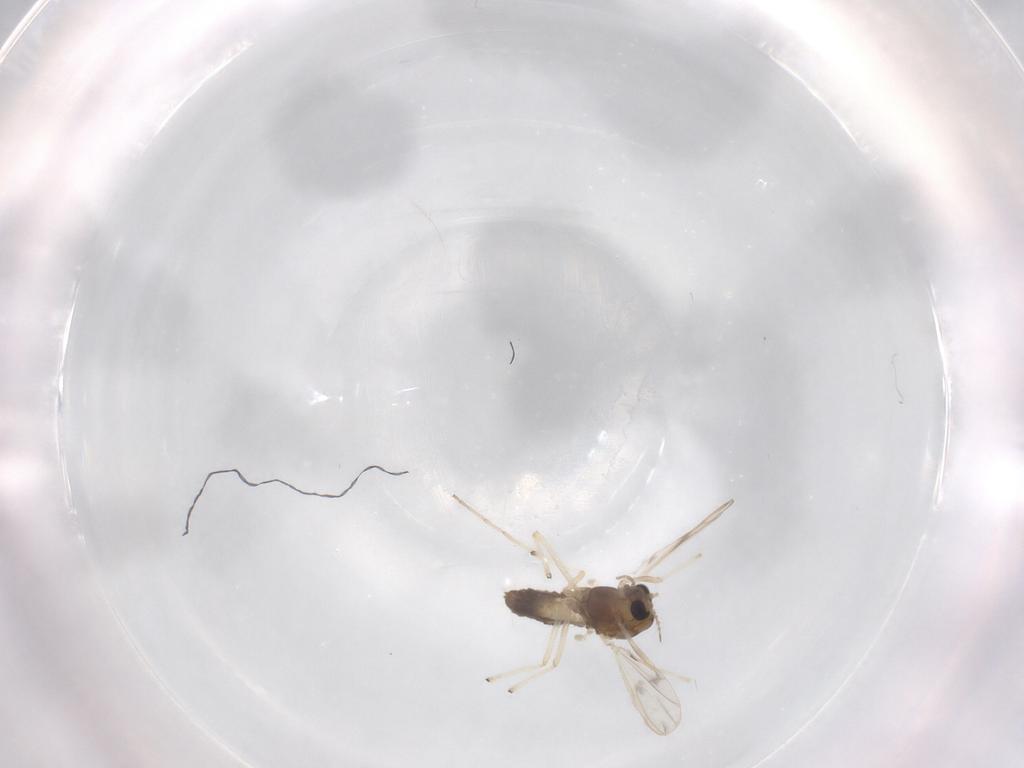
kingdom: Animalia
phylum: Arthropoda
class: Insecta
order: Diptera
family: Chironomidae
